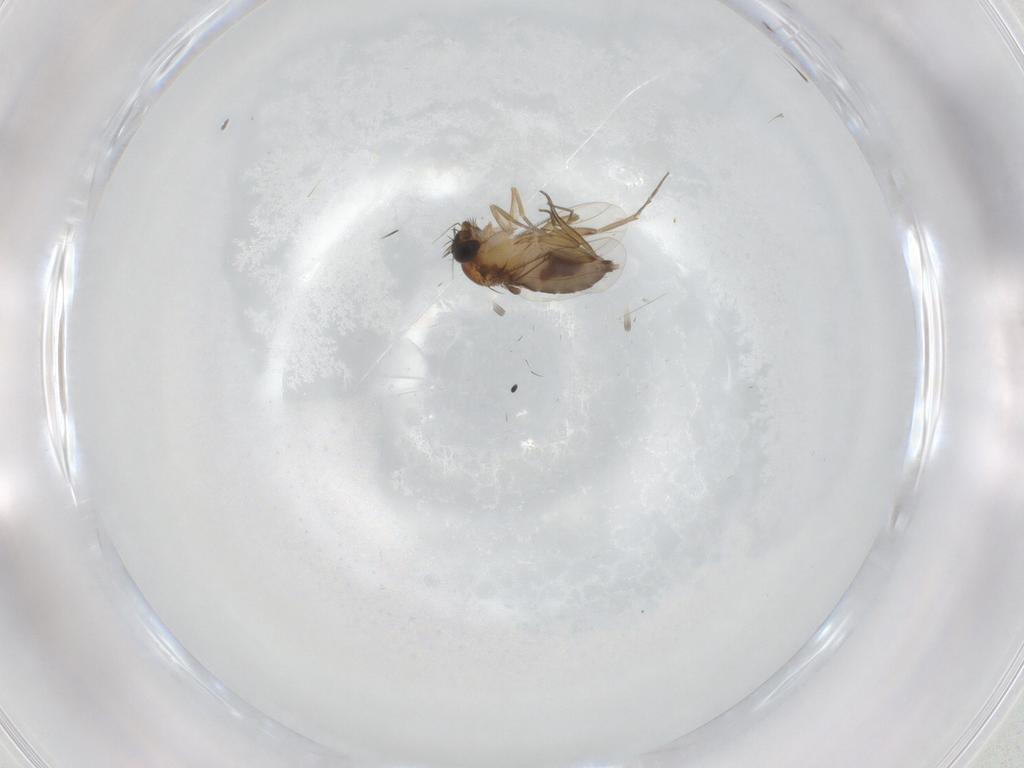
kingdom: Animalia
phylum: Arthropoda
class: Insecta
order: Diptera
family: Phoridae
